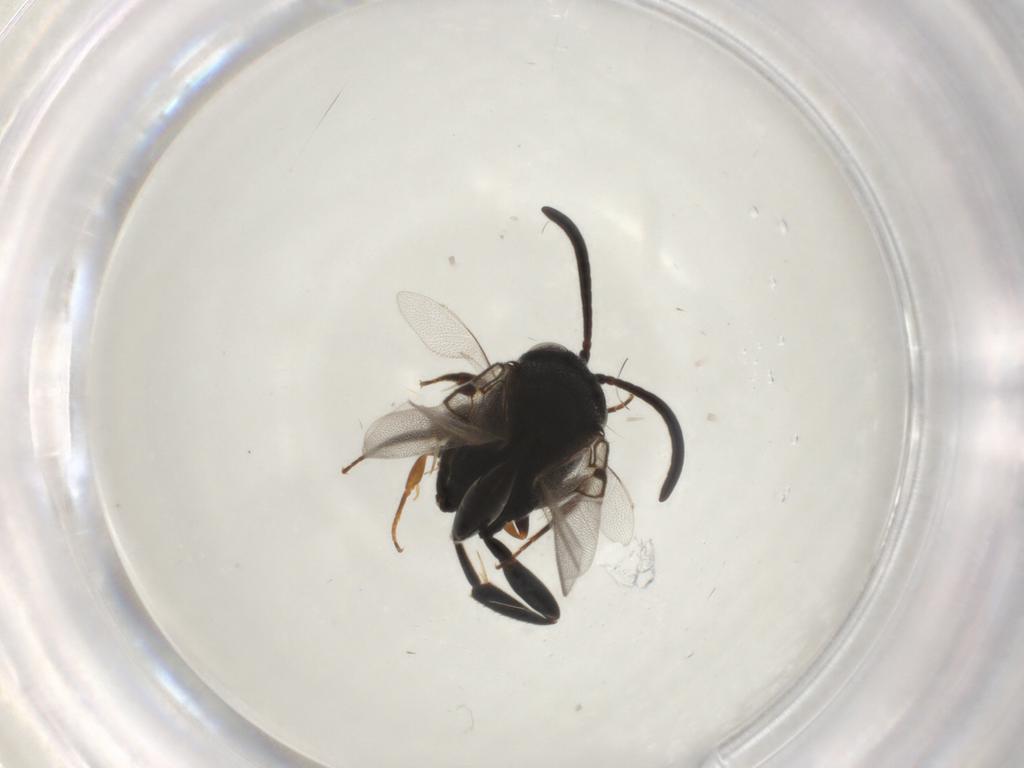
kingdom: Animalia
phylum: Arthropoda
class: Insecta
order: Hymenoptera
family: Evaniidae
